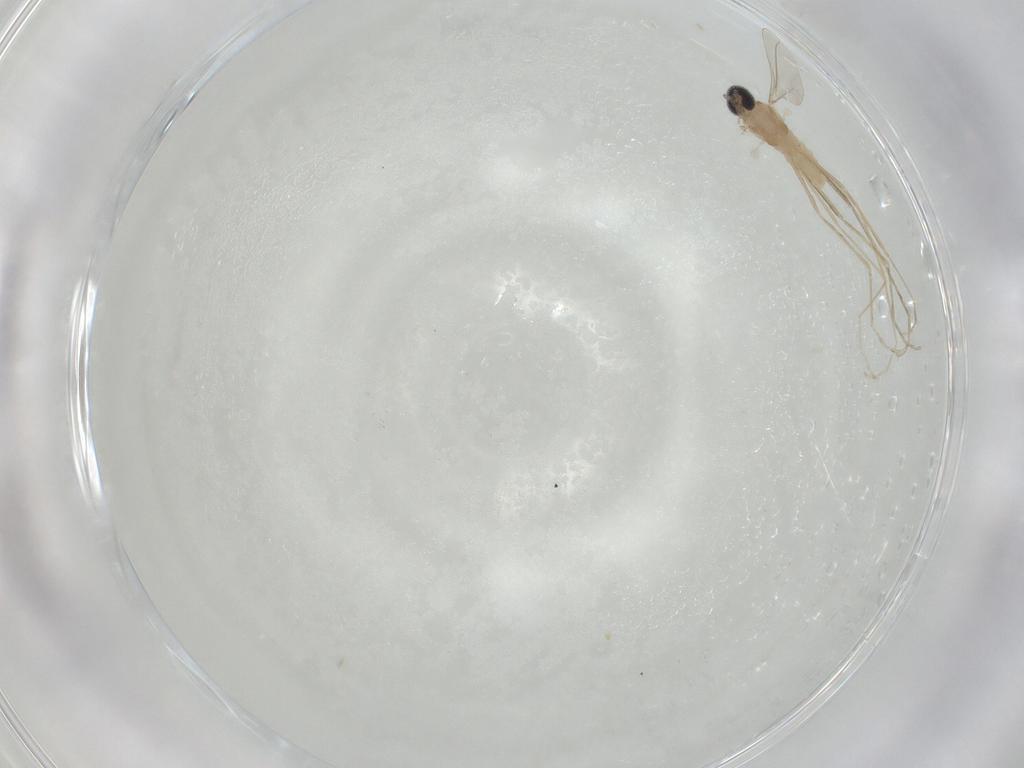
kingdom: Animalia
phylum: Arthropoda
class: Insecta
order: Diptera
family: Cecidomyiidae
